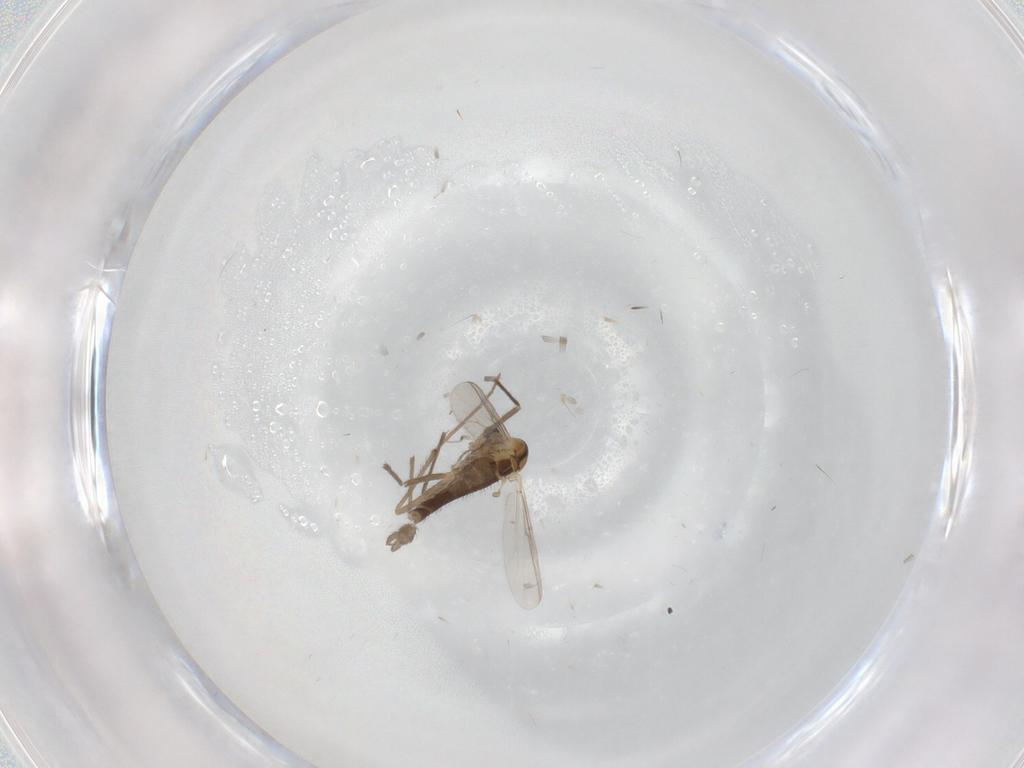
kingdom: Animalia
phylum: Arthropoda
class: Insecta
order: Diptera
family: Chironomidae
